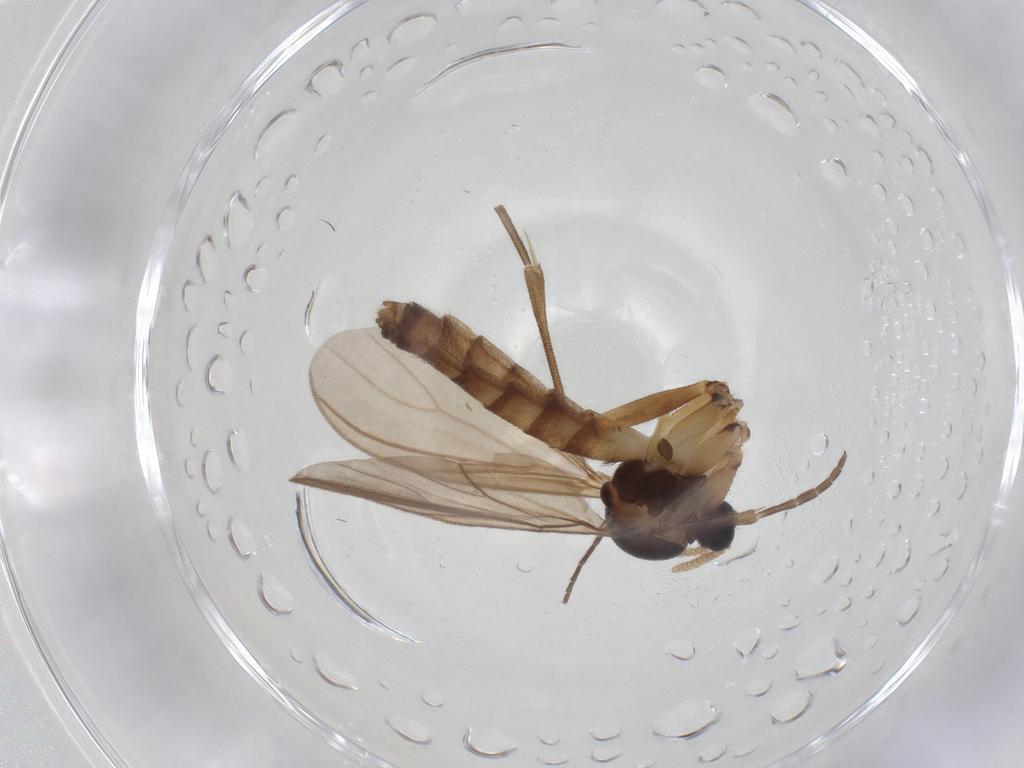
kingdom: Animalia
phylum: Arthropoda
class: Insecta
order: Diptera
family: Mycetophilidae
